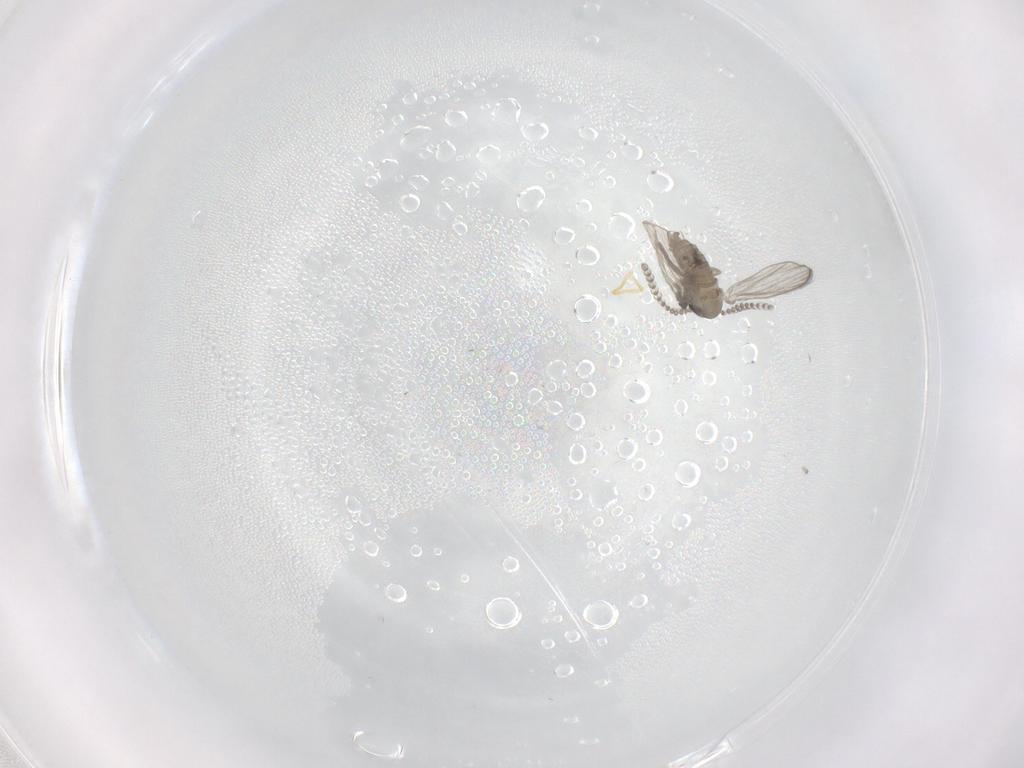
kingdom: Animalia
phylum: Arthropoda
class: Insecta
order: Diptera
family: Psychodidae
